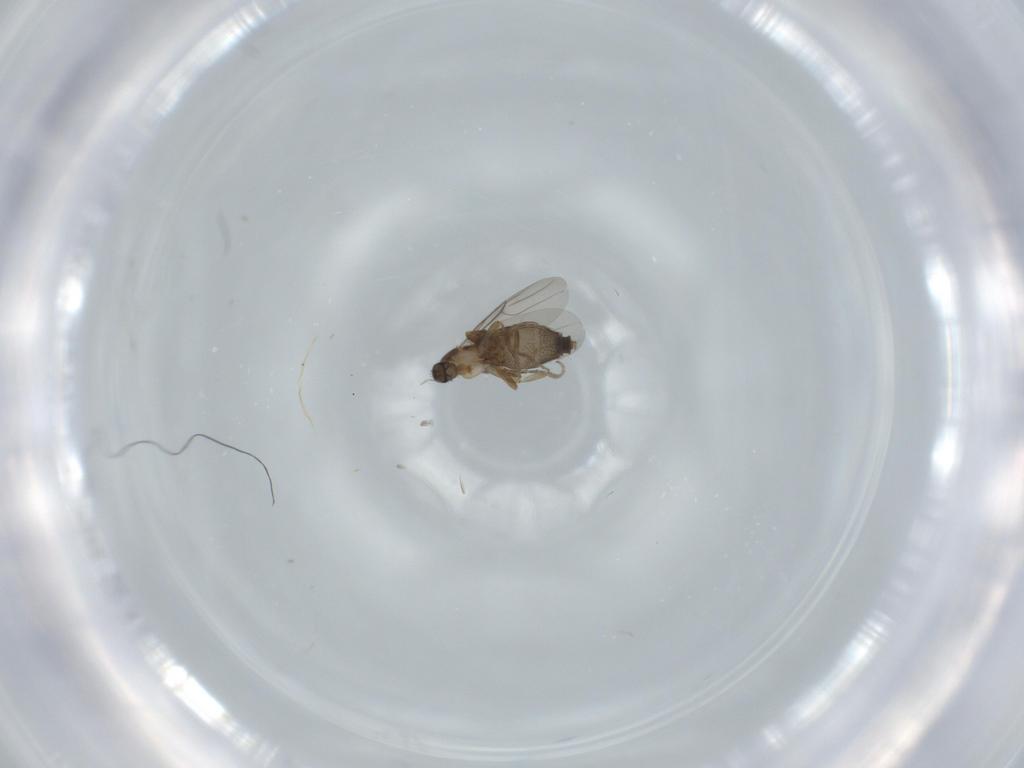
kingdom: Animalia
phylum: Arthropoda
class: Insecta
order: Diptera
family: Phoridae
